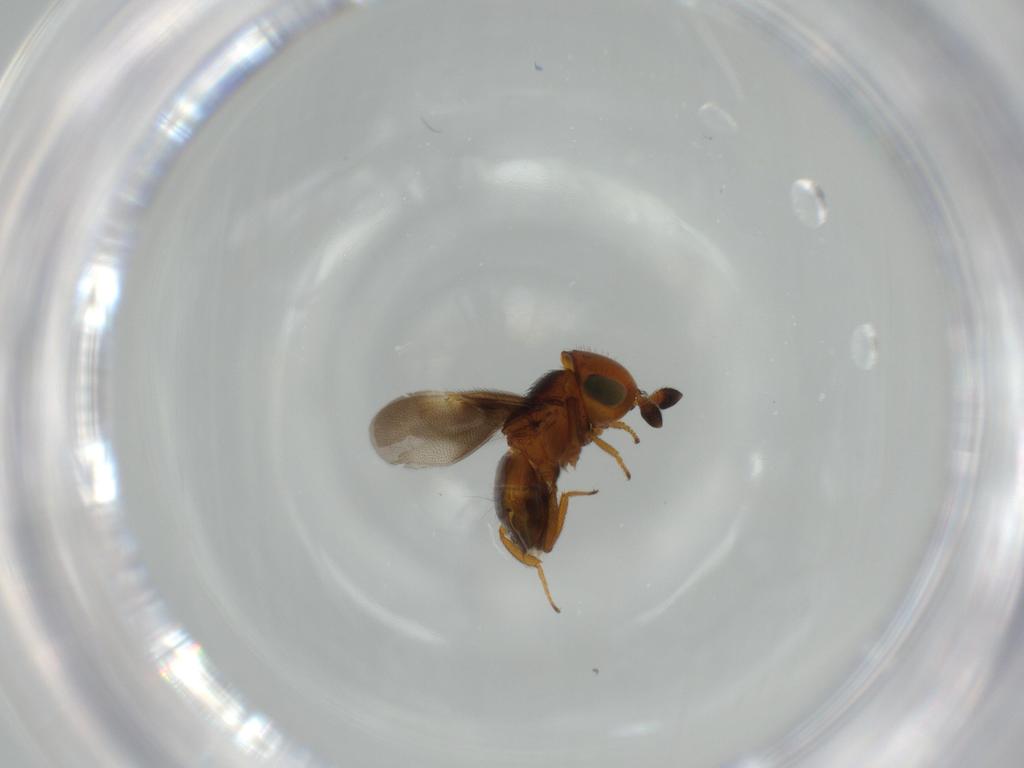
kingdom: Animalia
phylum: Arthropoda
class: Insecta
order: Hymenoptera
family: Encyrtidae
